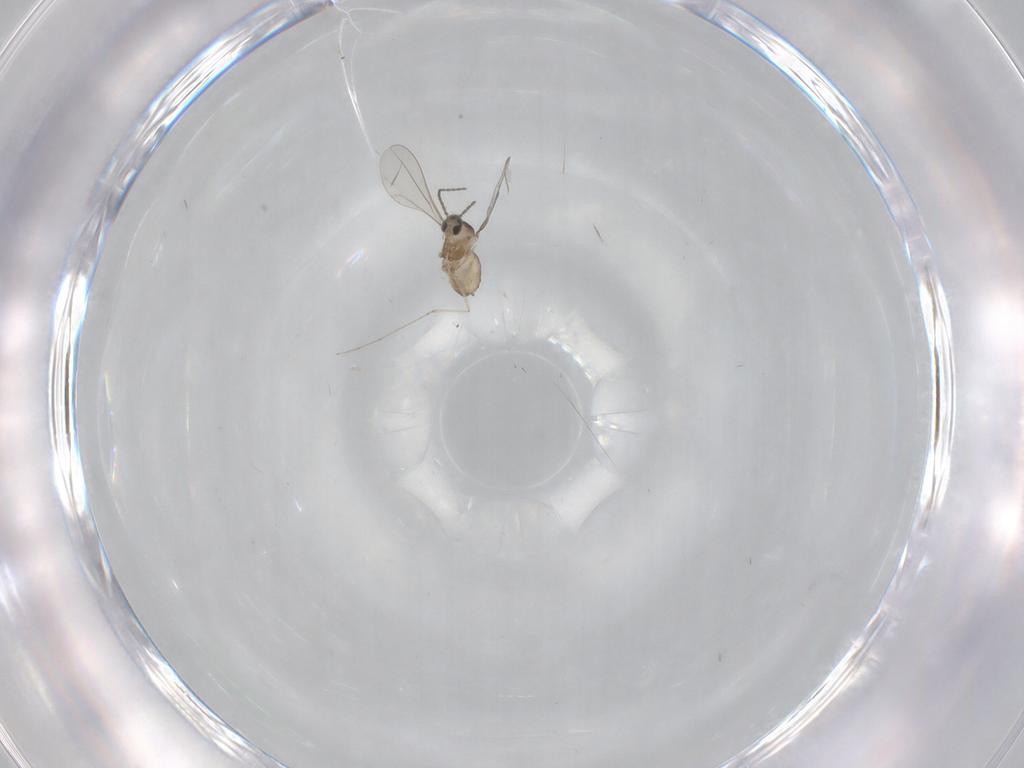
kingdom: Animalia
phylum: Arthropoda
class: Insecta
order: Diptera
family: Cecidomyiidae
